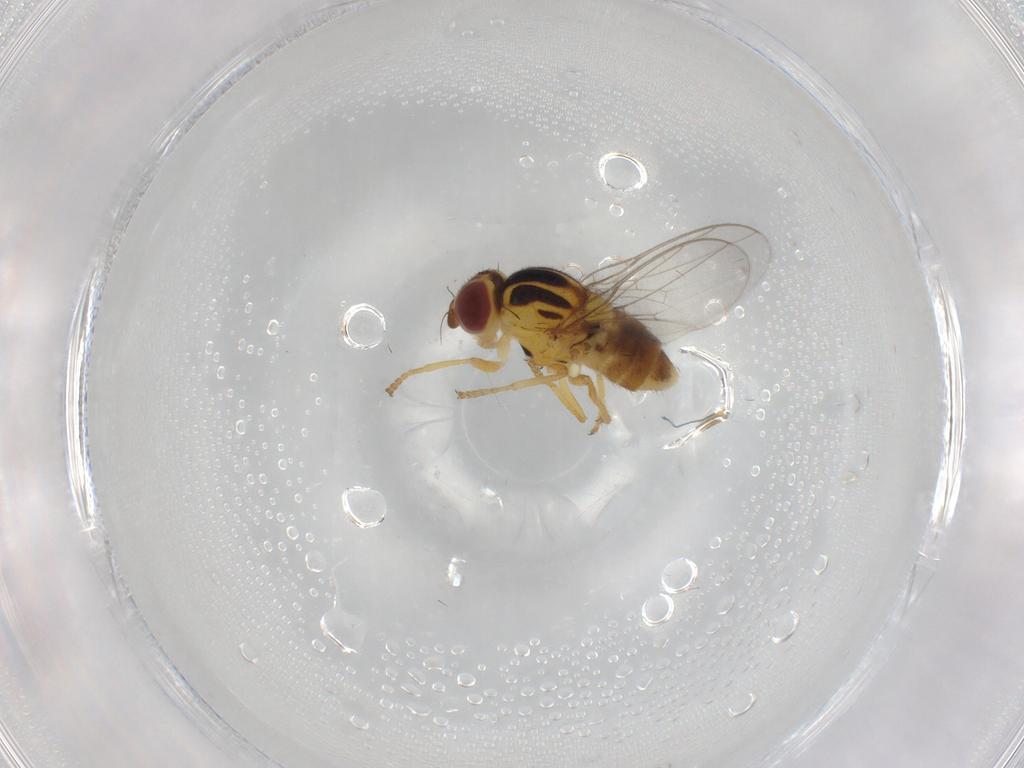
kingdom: Animalia
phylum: Arthropoda
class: Insecta
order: Diptera
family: Chloropidae
